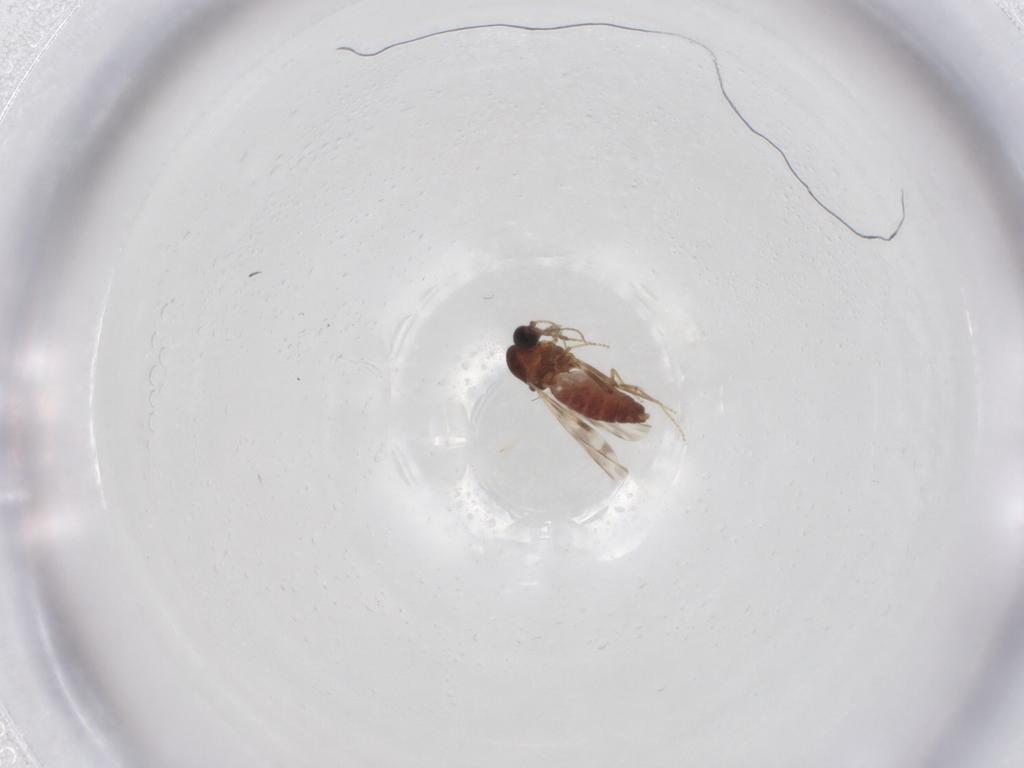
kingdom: Animalia
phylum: Arthropoda
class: Insecta
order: Diptera
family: Ceratopogonidae
